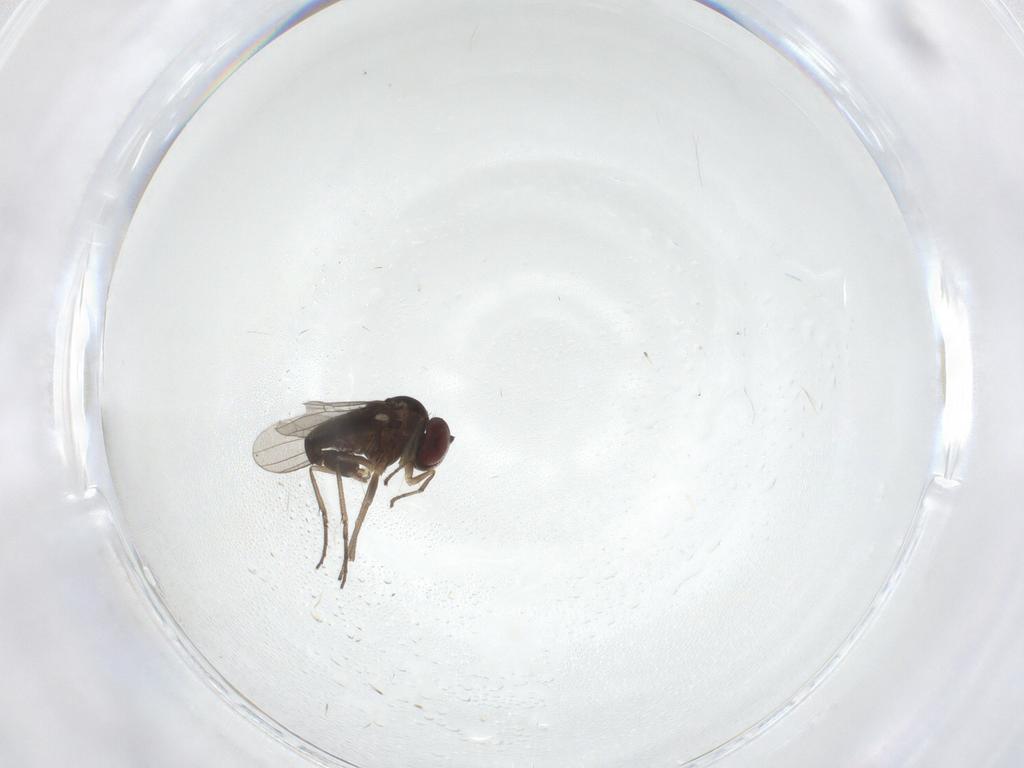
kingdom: Animalia
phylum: Arthropoda
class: Insecta
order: Diptera
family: Dolichopodidae
